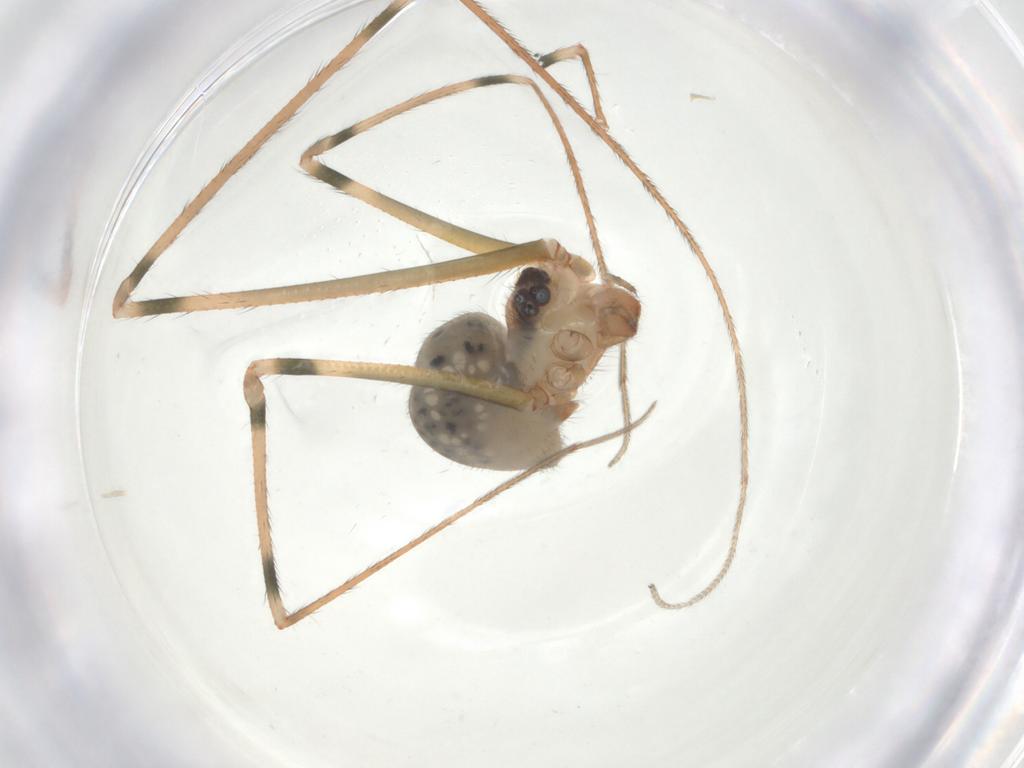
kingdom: Animalia
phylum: Arthropoda
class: Arachnida
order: Araneae
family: Pholcidae
